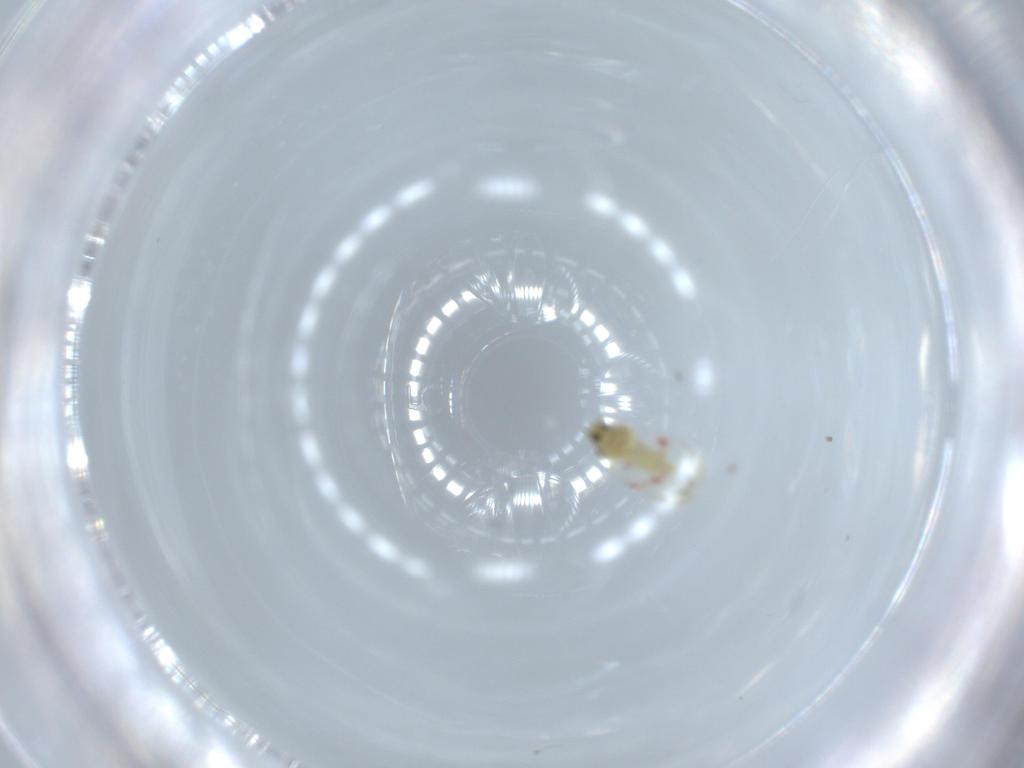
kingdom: Animalia
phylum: Arthropoda
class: Insecta
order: Hemiptera
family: Aleyrodidae
